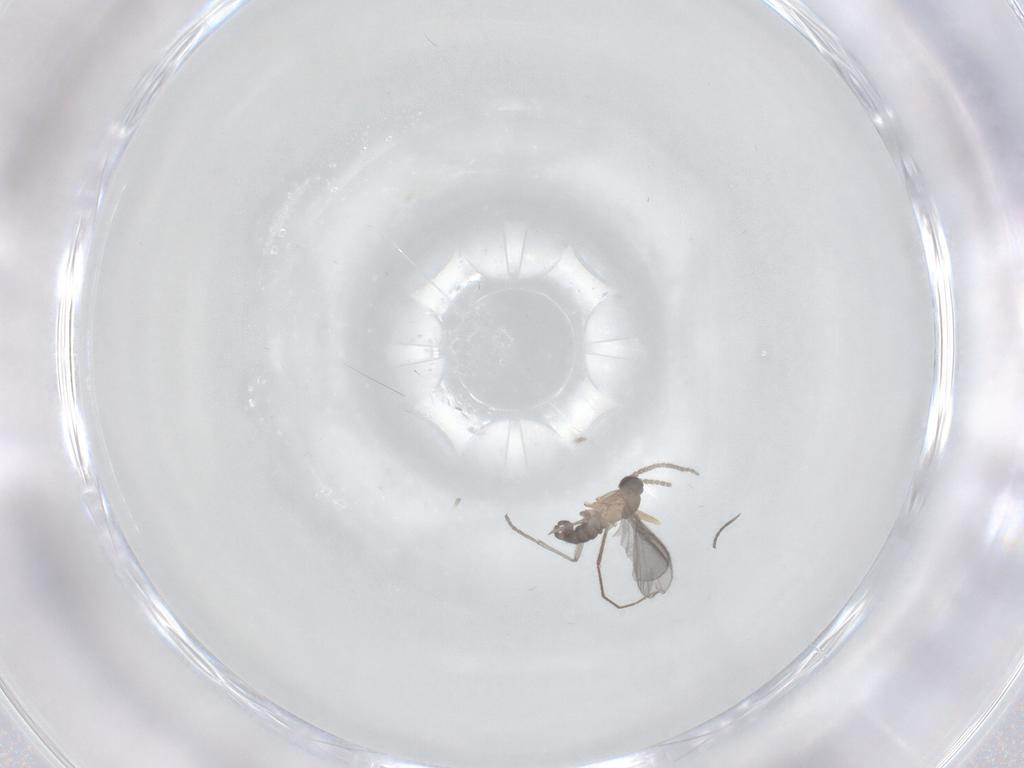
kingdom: Animalia
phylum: Arthropoda
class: Insecta
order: Diptera
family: Sciaridae
